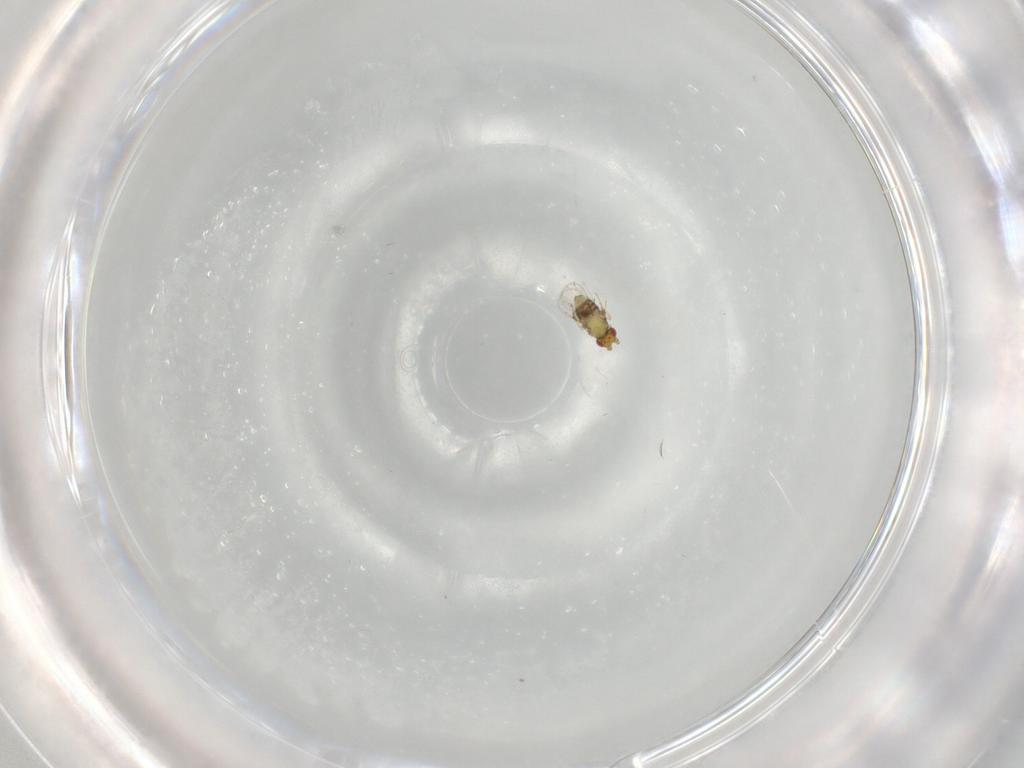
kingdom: Animalia
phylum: Arthropoda
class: Insecta
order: Hymenoptera
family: Trichogrammatidae
